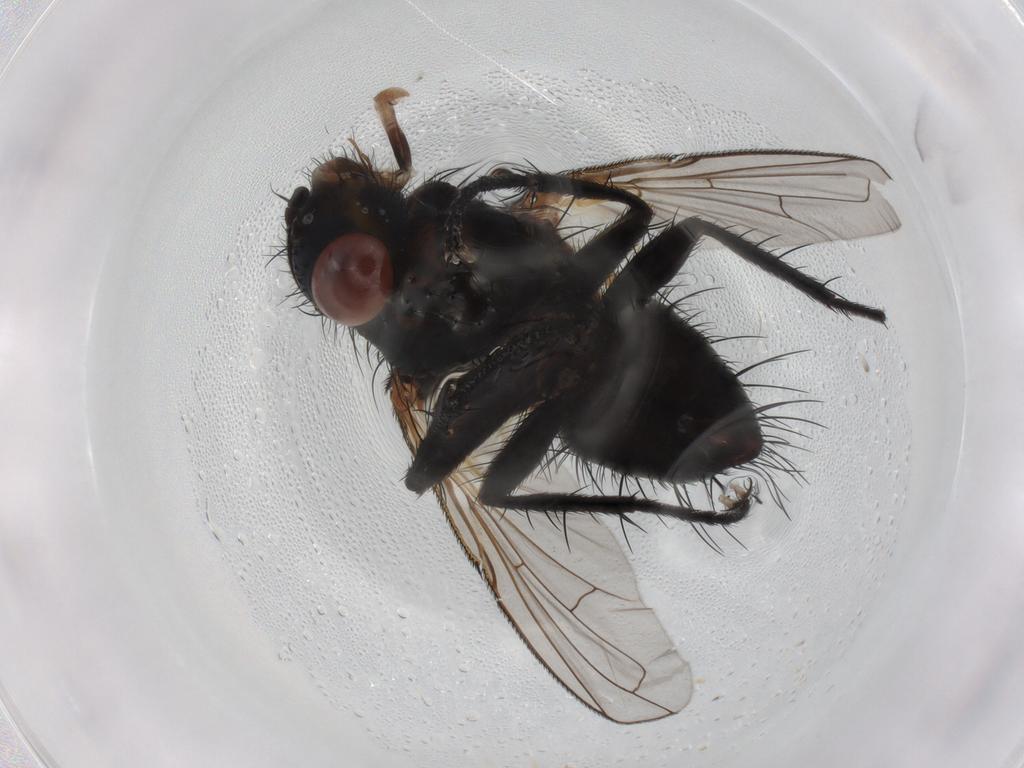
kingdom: Animalia
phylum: Arthropoda
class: Insecta
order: Diptera
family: Tachinidae
